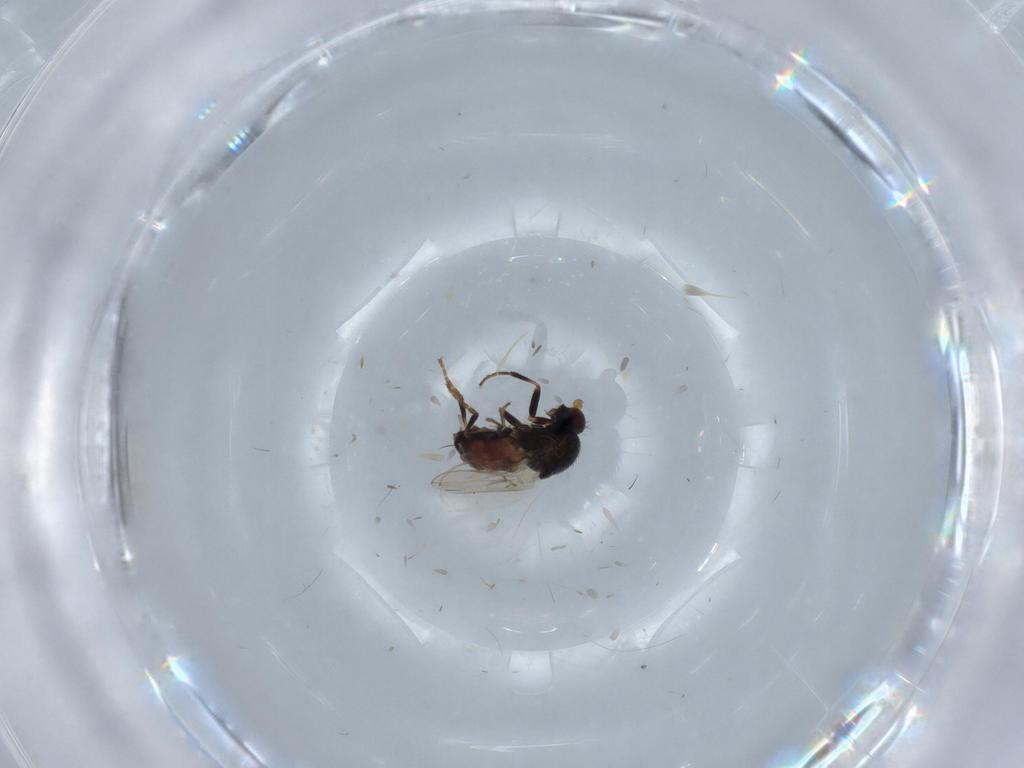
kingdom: Animalia
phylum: Arthropoda
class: Insecta
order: Diptera
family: Sphaeroceridae
